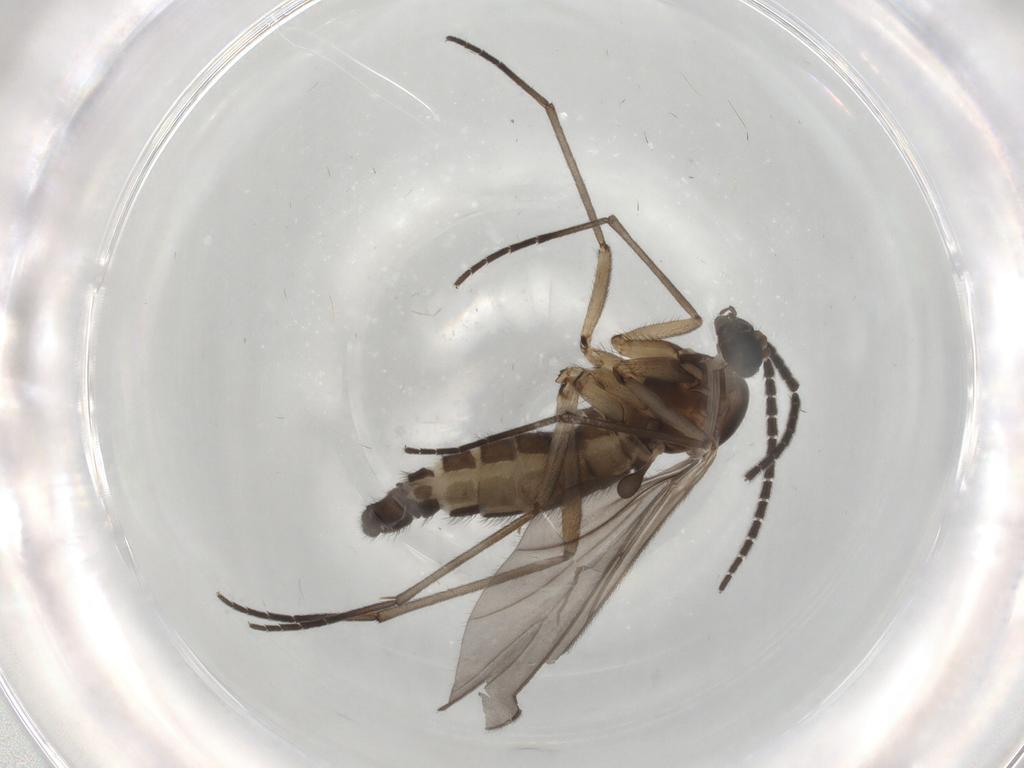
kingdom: Animalia
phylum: Arthropoda
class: Insecta
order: Diptera
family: Sciaridae
